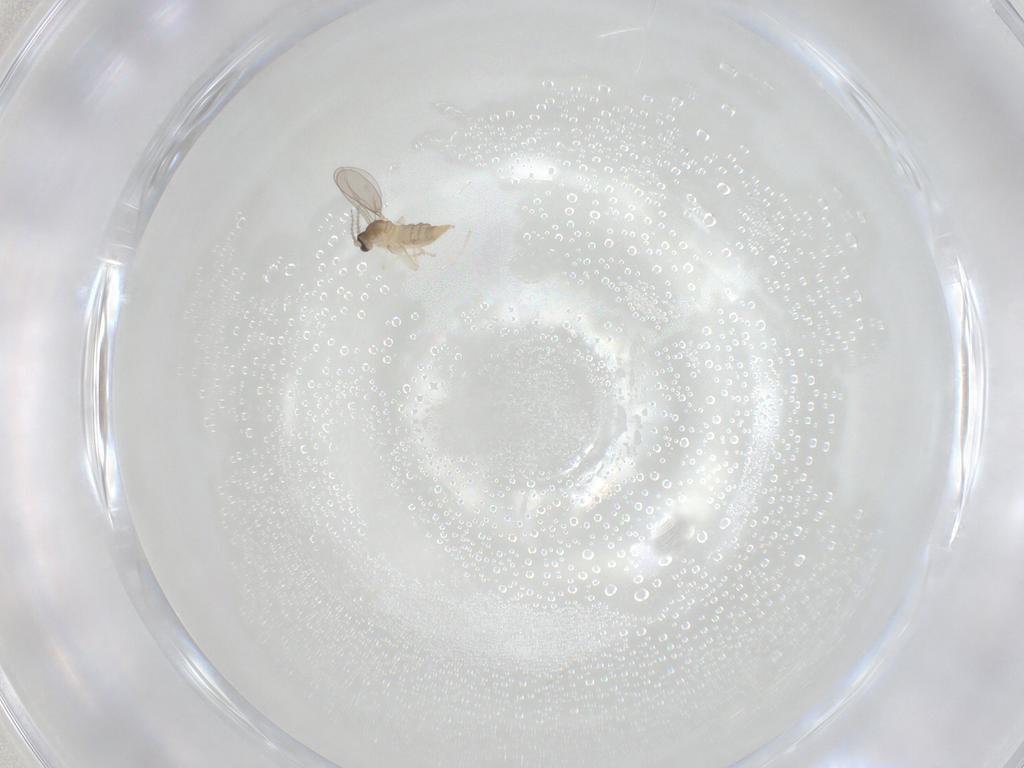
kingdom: Animalia
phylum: Arthropoda
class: Insecta
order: Diptera
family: Cecidomyiidae
